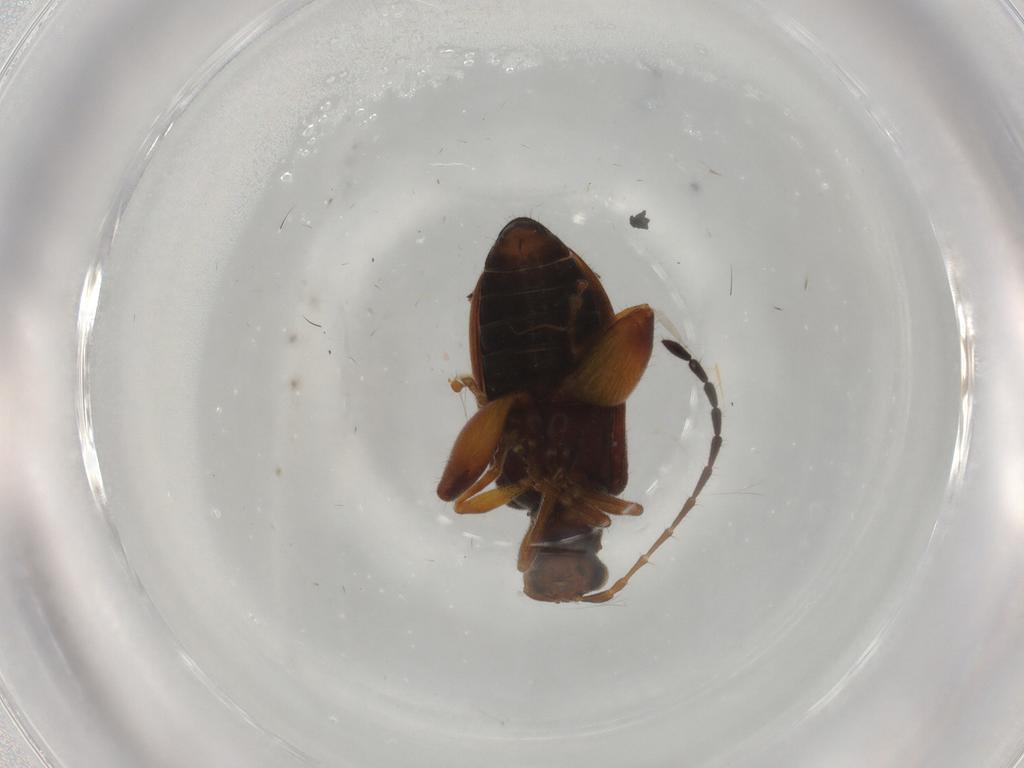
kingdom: Animalia
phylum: Arthropoda
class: Insecta
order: Coleoptera
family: Chrysomelidae
